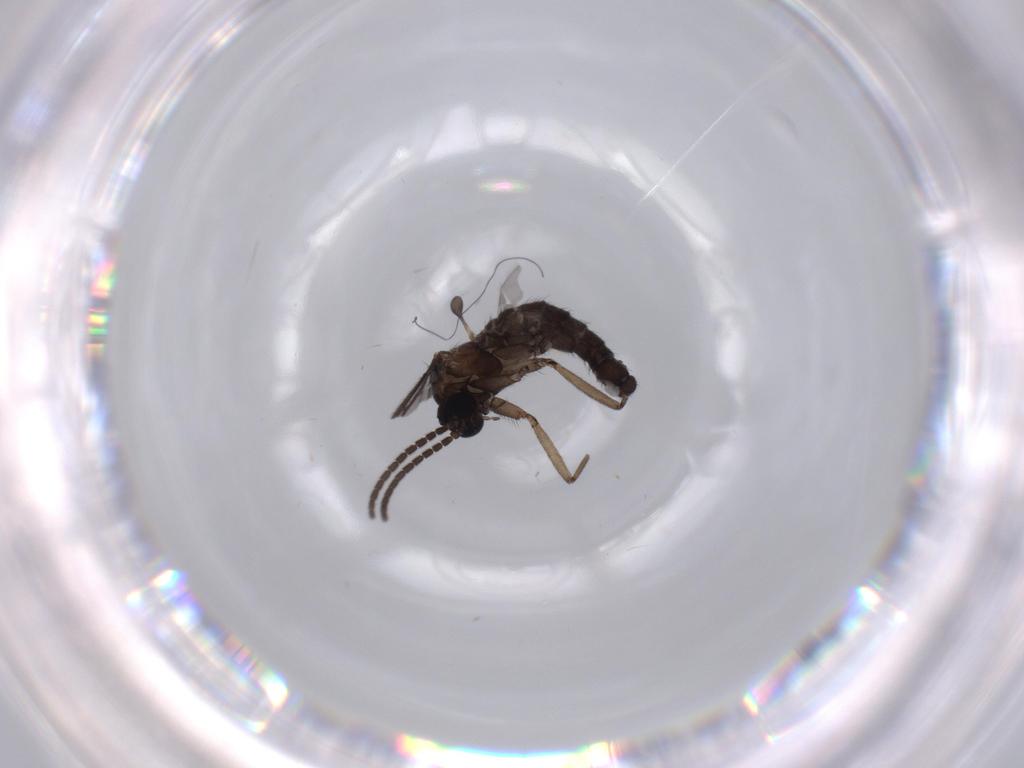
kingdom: Animalia
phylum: Arthropoda
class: Insecta
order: Diptera
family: Sciaridae
